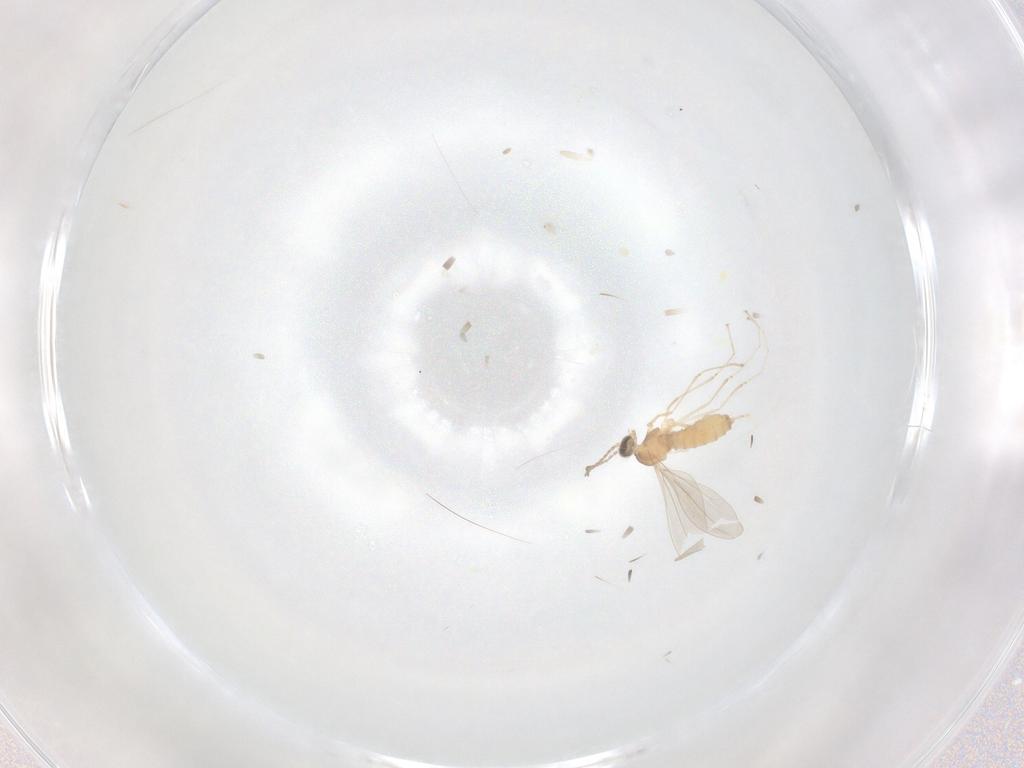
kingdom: Animalia
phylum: Arthropoda
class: Insecta
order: Diptera
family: Cecidomyiidae
